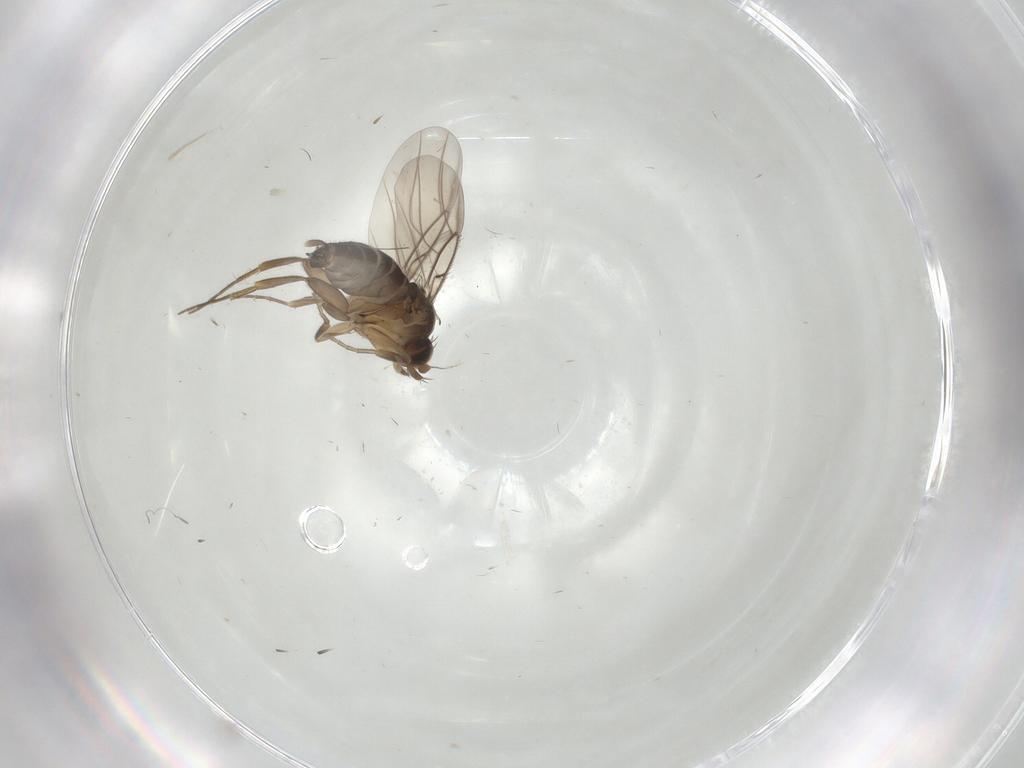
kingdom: Animalia
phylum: Arthropoda
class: Insecta
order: Diptera
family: Phoridae
